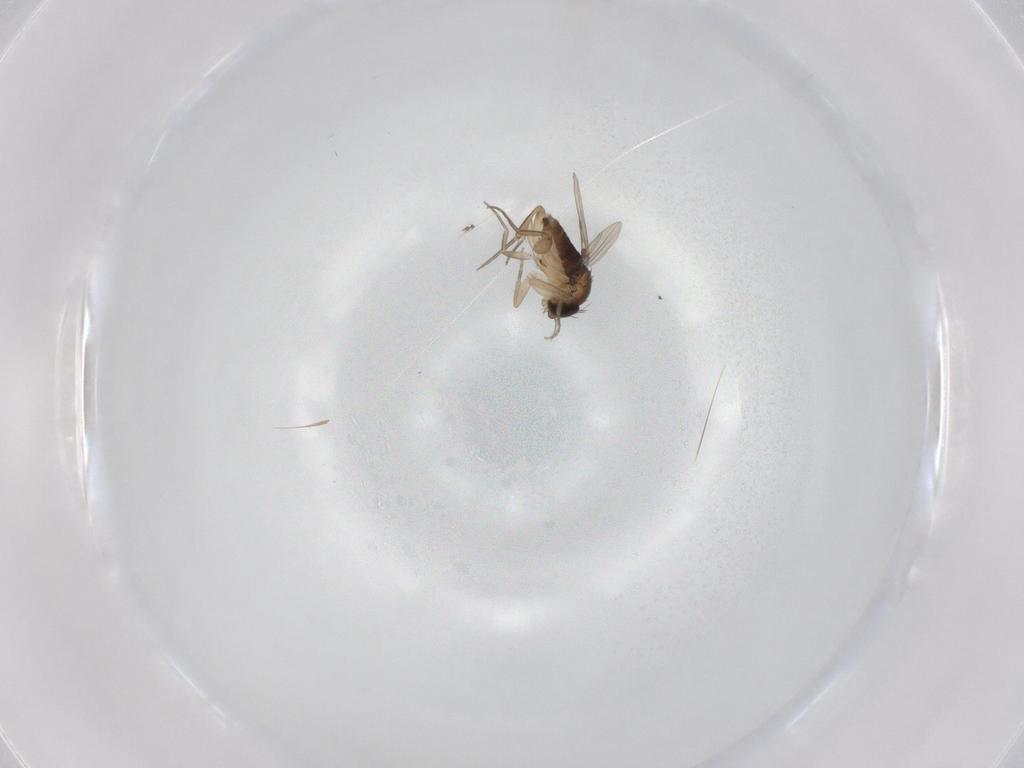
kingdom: Animalia
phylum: Arthropoda
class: Insecta
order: Diptera
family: Phoridae
